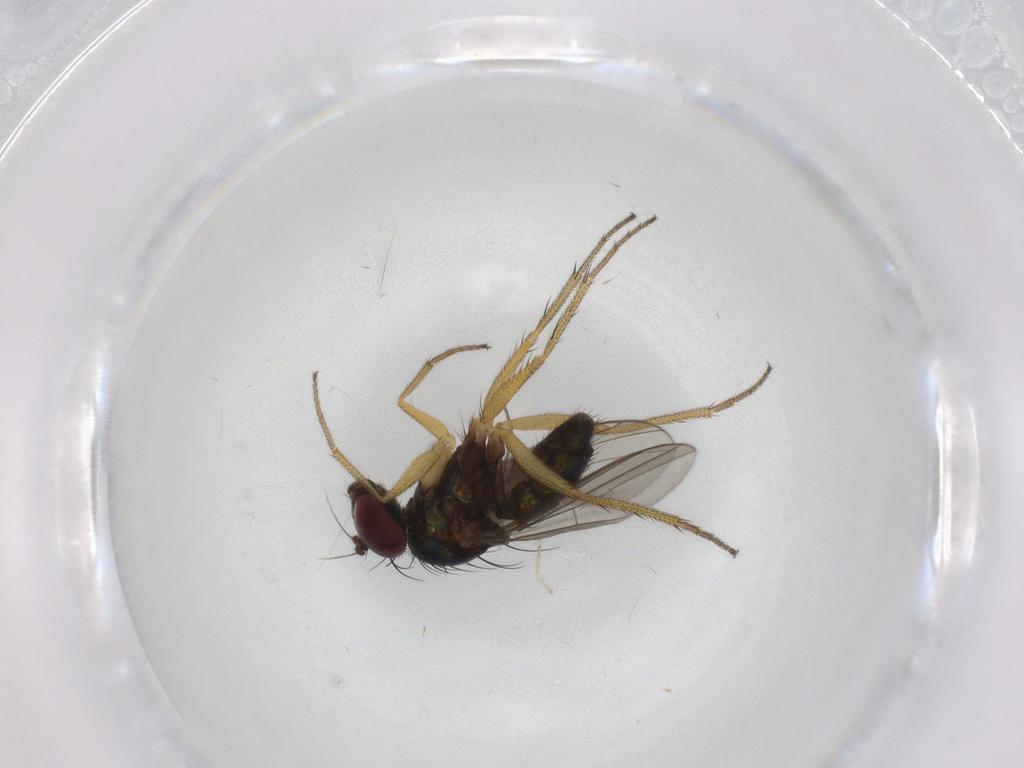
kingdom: Animalia
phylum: Arthropoda
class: Insecta
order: Diptera
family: Dolichopodidae
